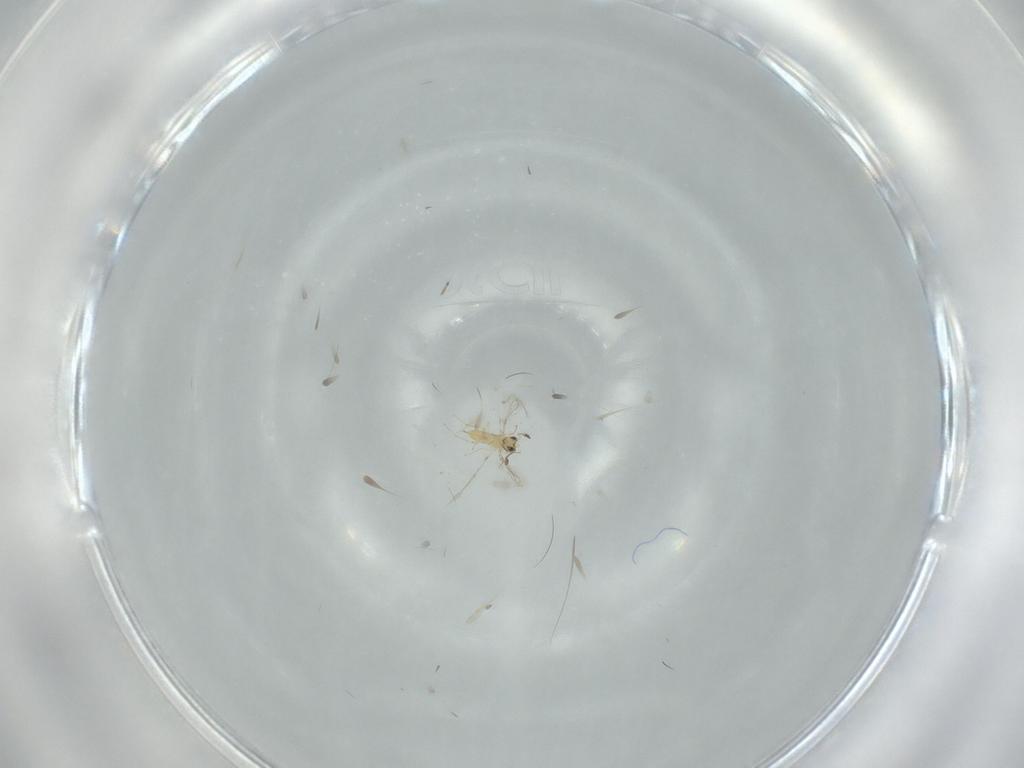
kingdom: Animalia
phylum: Arthropoda
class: Insecta
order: Hymenoptera
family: Mymaridae
